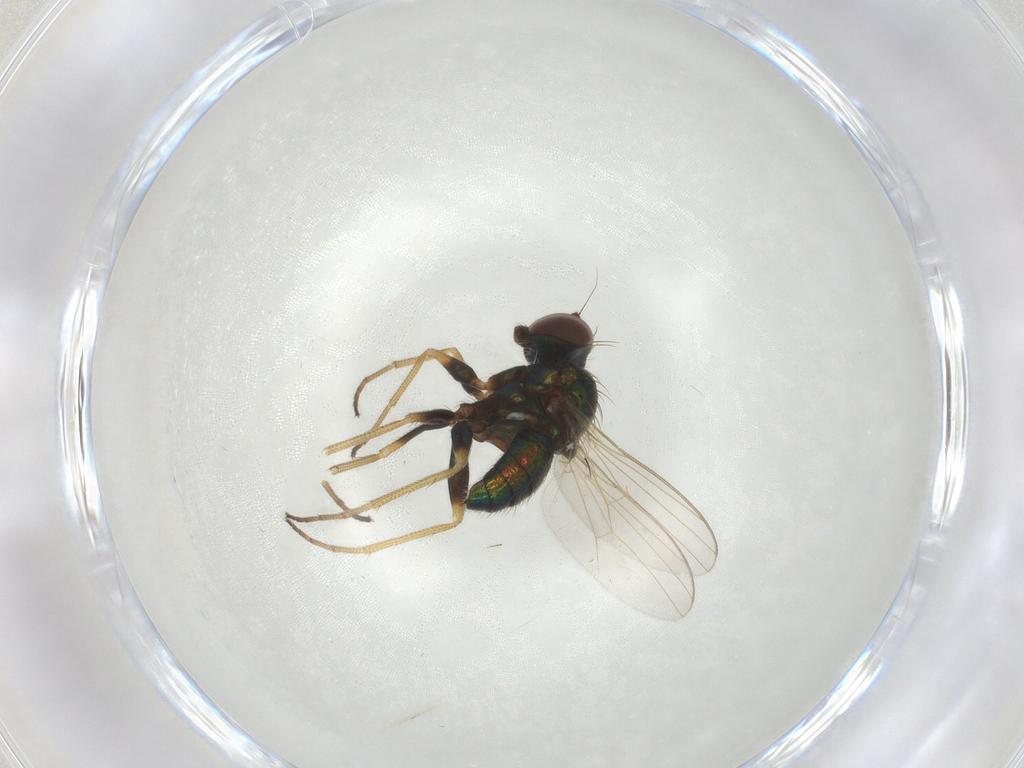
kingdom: Animalia
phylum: Arthropoda
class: Insecta
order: Diptera
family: Dolichopodidae
